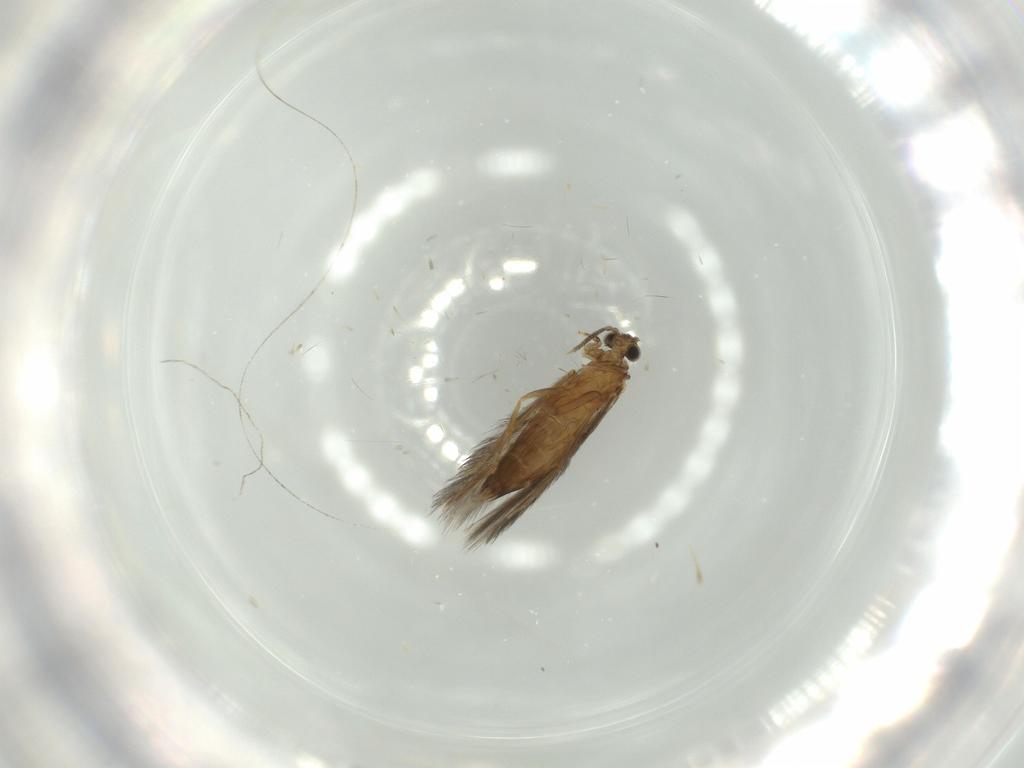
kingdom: Animalia
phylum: Arthropoda
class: Insecta
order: Trichoptera
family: Hydroptilidae
